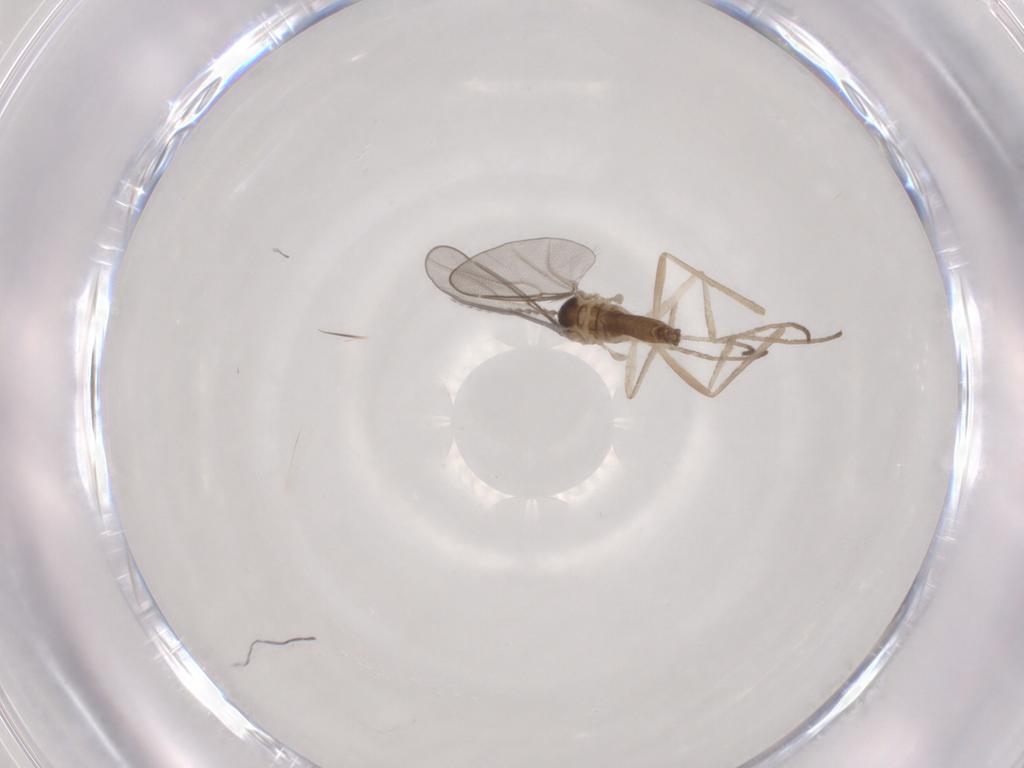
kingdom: Animalia
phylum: Arthropoda
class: Insecta
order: Diptera
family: Cecidomyiidae
